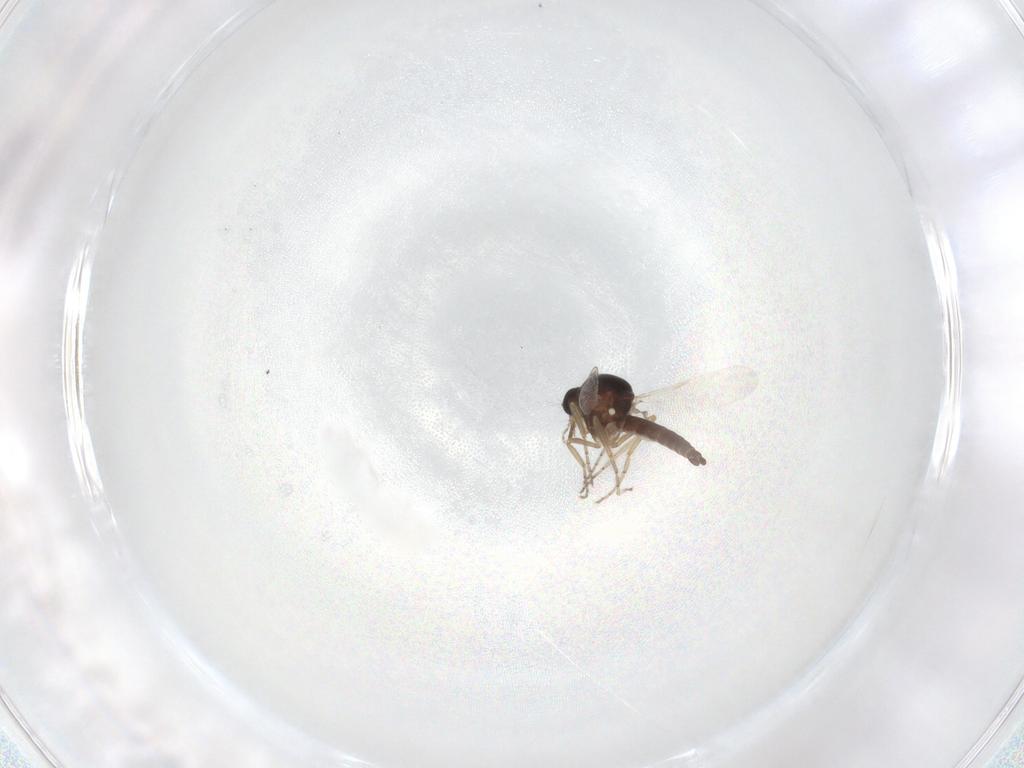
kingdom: Animalia
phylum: Arthropoda
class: Insecta
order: Diptera
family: Ceratopogonidae
